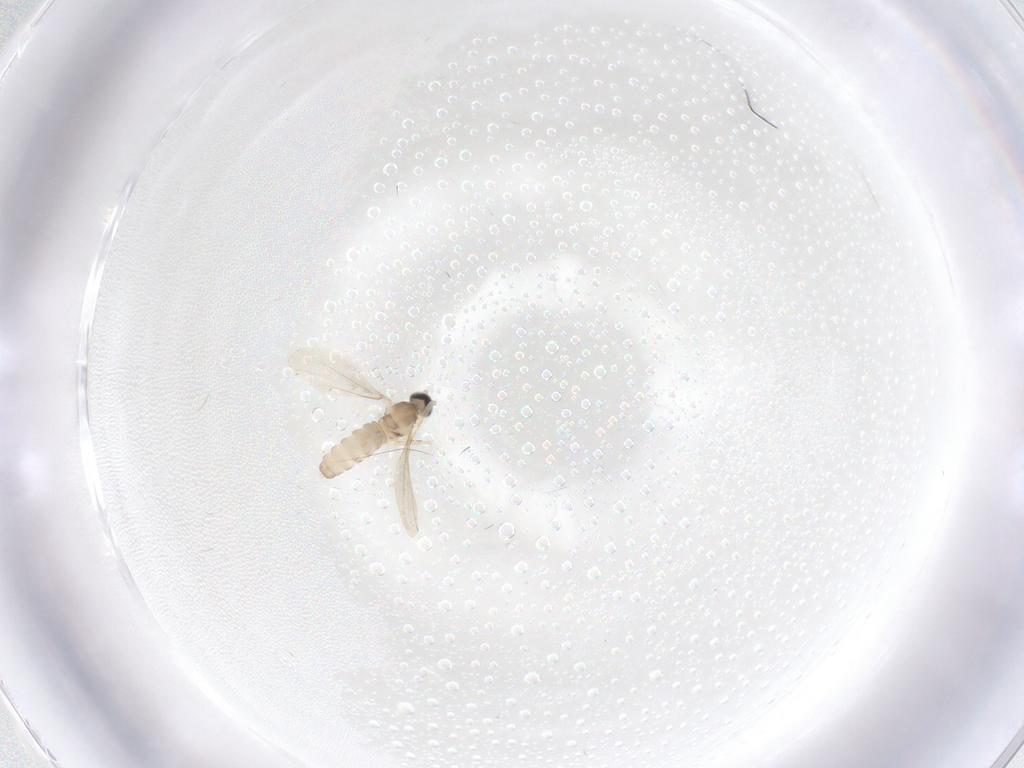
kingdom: Animalia
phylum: Arthropoda
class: Insecta
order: Diptera
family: Cecidomyiidae
